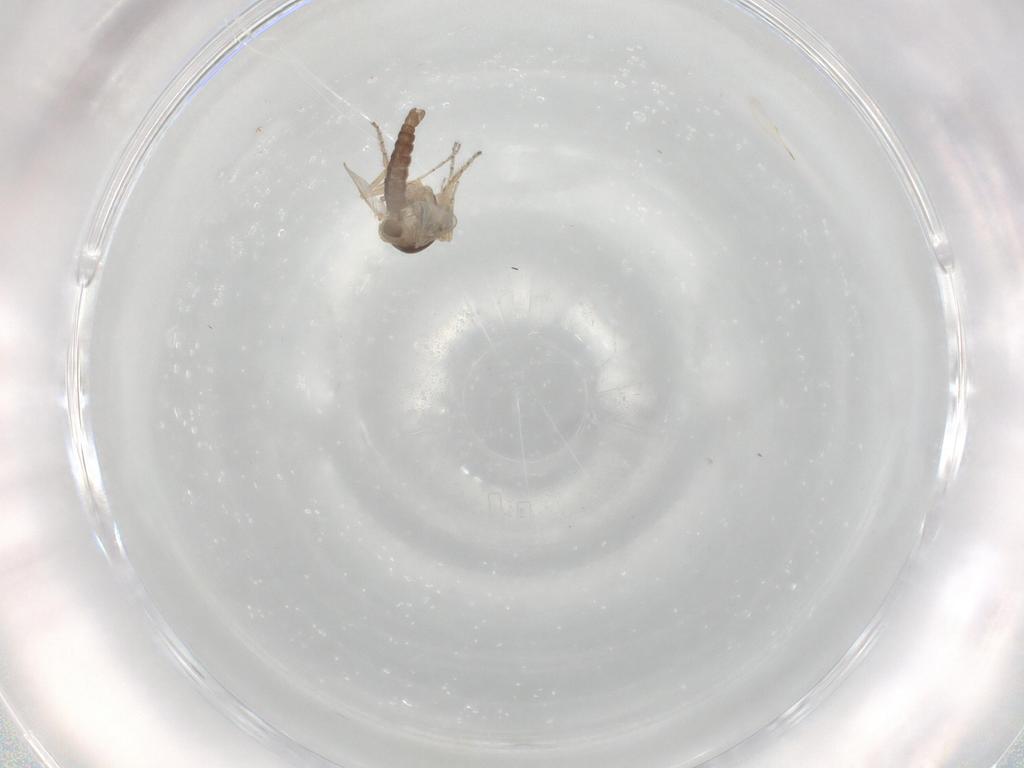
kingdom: Animalia
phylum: Arthropoda
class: Insecta
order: Diptera
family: Ceratopogonidae
